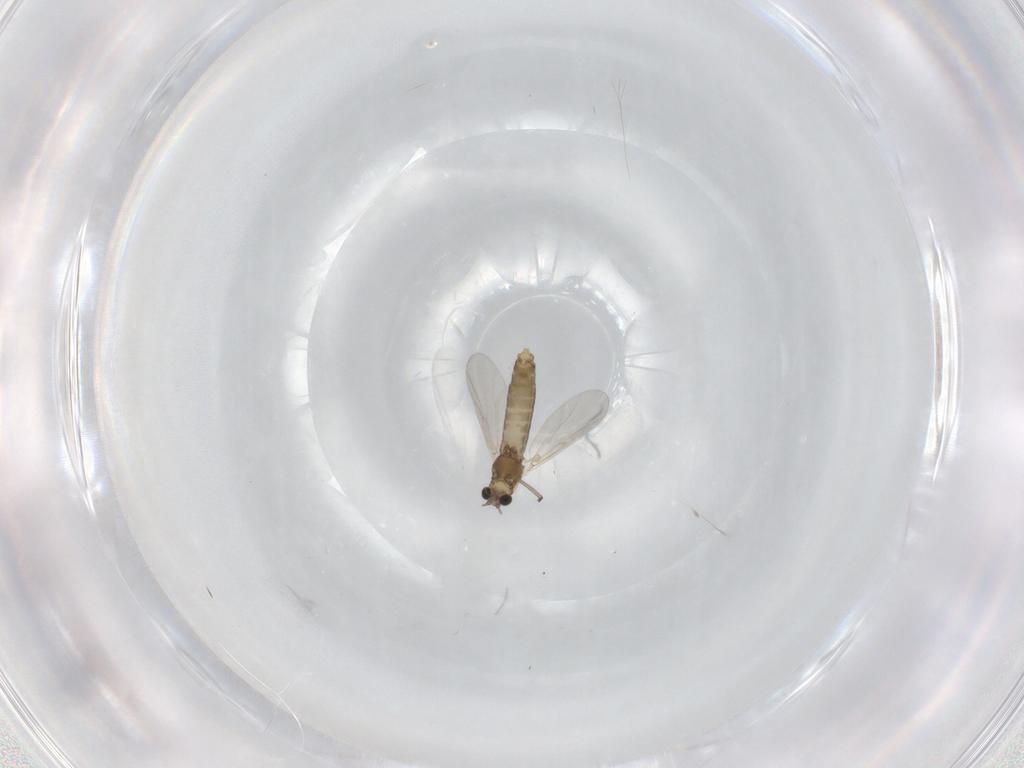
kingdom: Animalia
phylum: Arthropoda
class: Insecta
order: Diptera
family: Chironomidae
